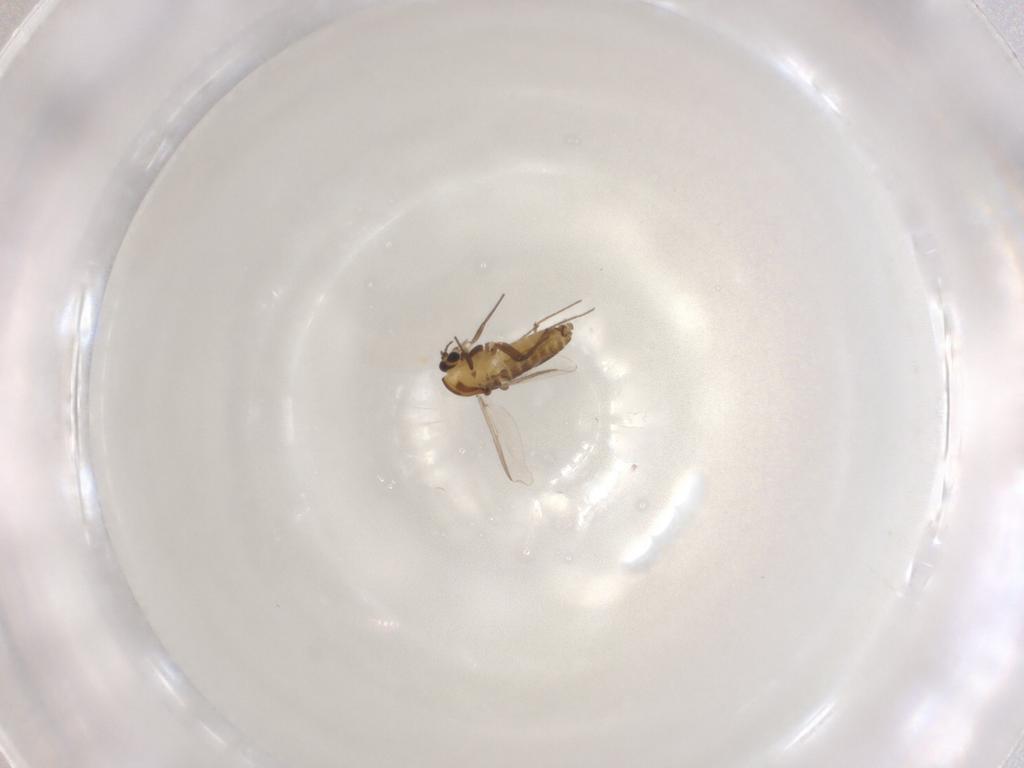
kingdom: Animalia
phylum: Arthropoda
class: Insecta
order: Diptera
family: Chironomidae
